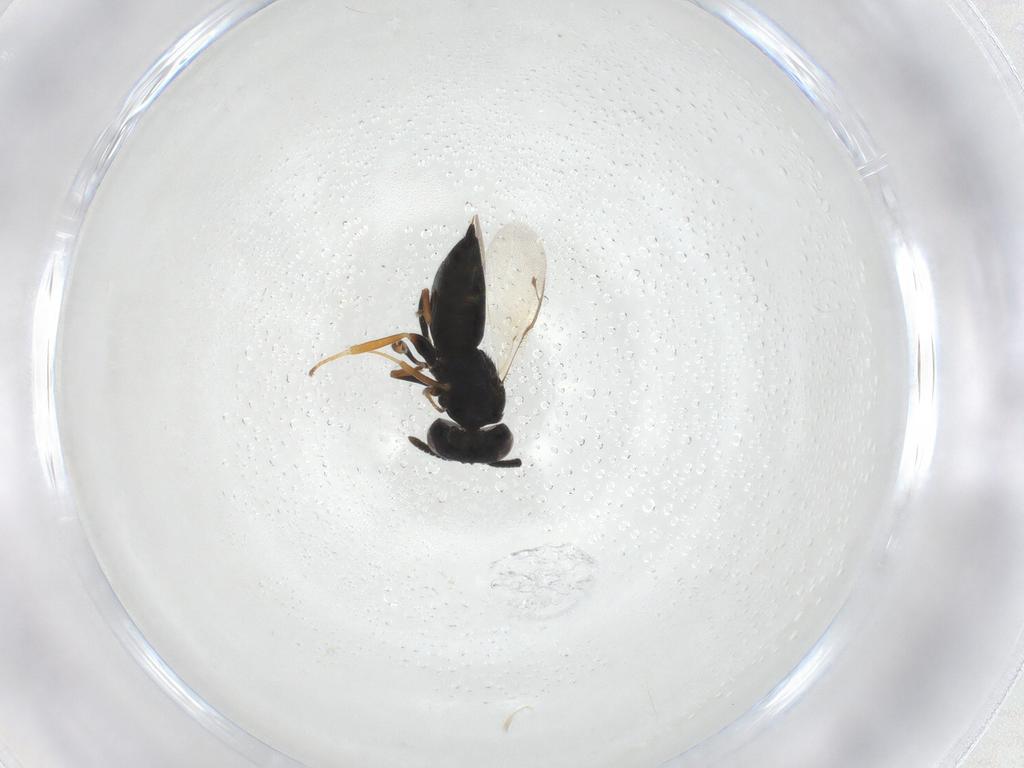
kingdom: Animalia
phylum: Arthropoda
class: Insecta
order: Hymenoptera
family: Pteromalidae
